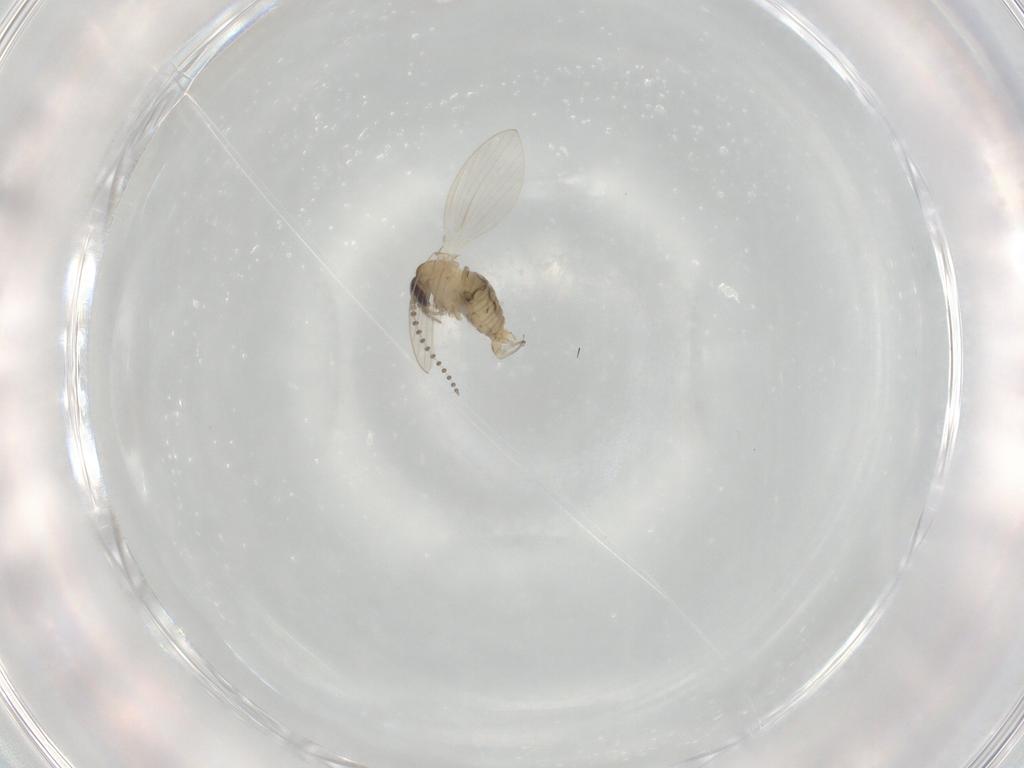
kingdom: Animalia
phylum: Arthropoda
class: Insecta
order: Diptera
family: Psychodidae
